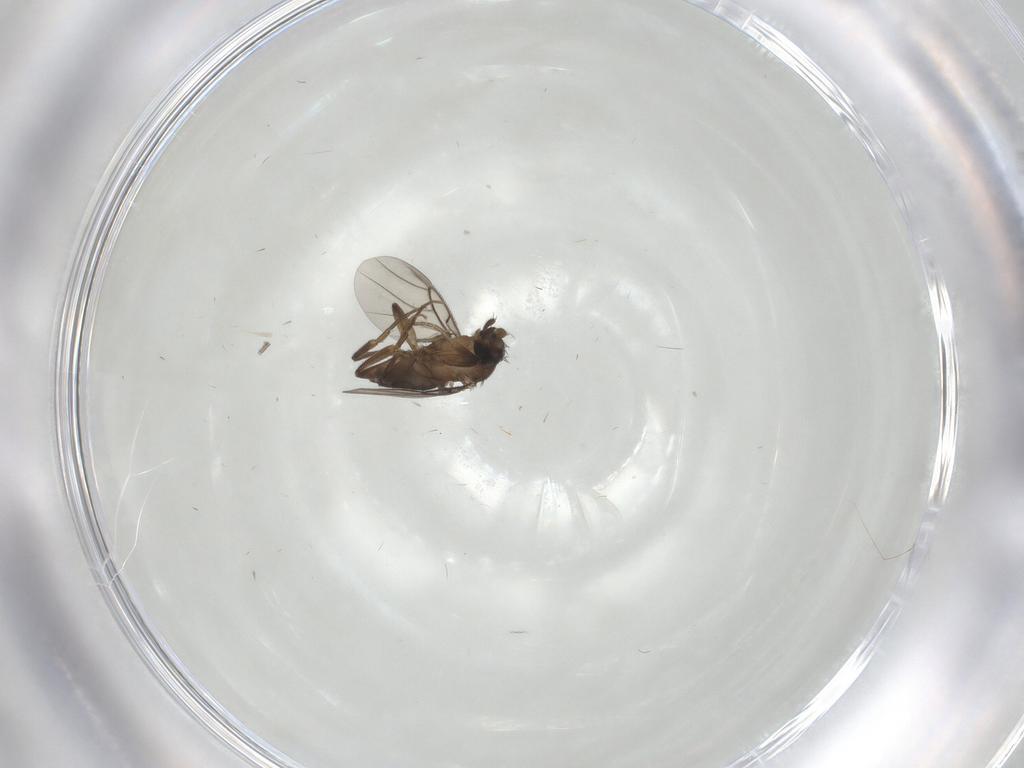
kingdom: Animalia
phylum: Arthropoda
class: Insecta
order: Diptera
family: Phoridae
